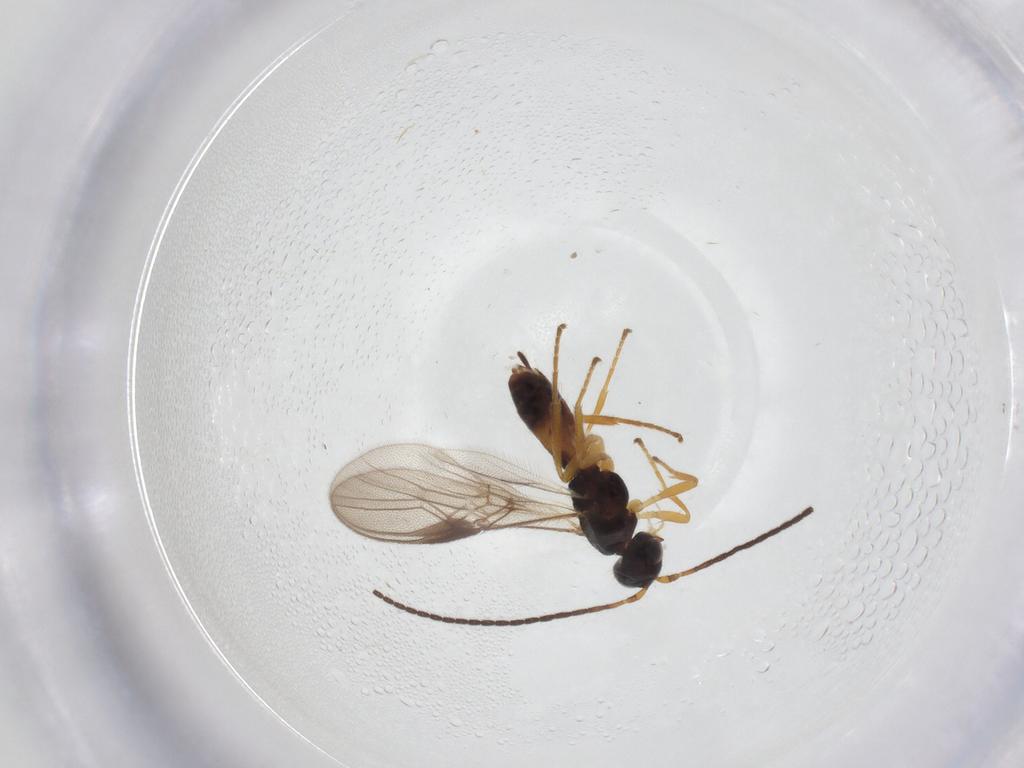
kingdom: Animalia
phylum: Arthropoda
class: Insecta
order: Hymenoptera
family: Braconidae
